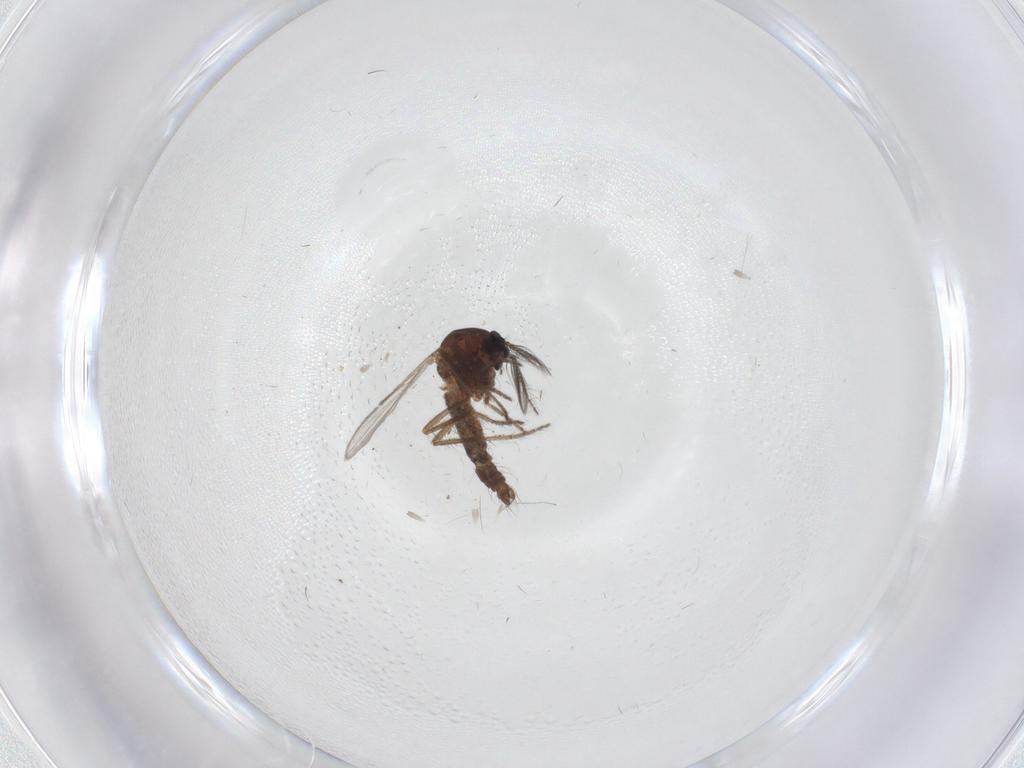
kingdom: Animalia
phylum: Arthropoda
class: Insecta
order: Diptera
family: Ceratopogonidae
